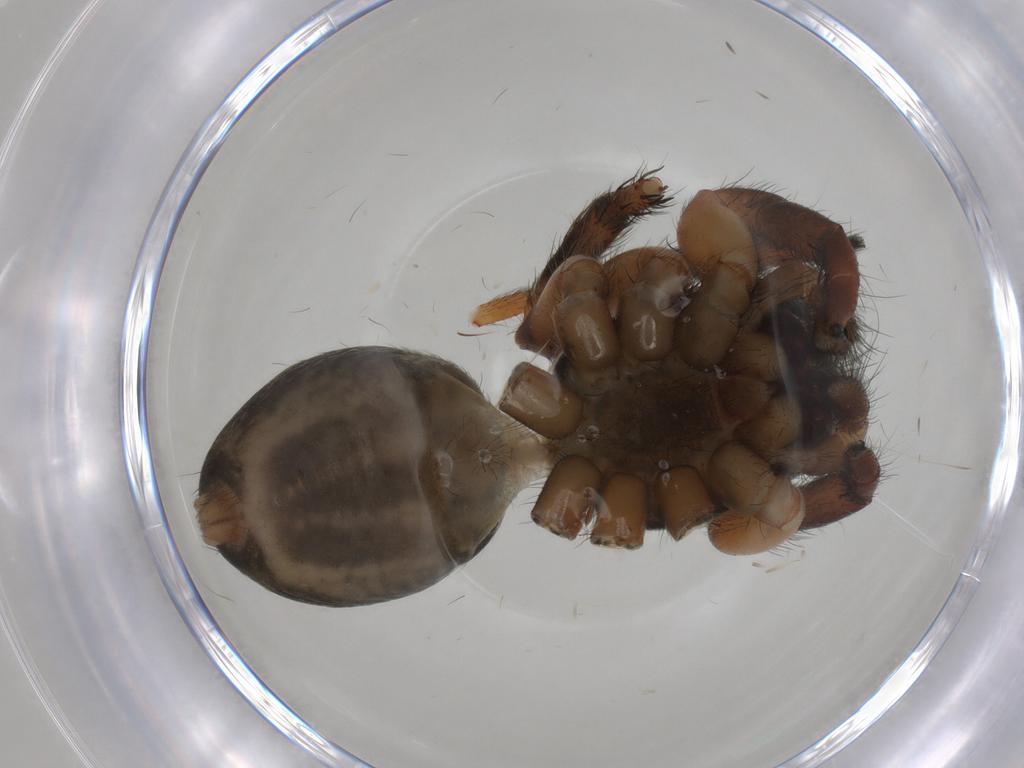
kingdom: Animalia
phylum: Arthropoda
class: Arachnida
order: Araneae
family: Salticidae
